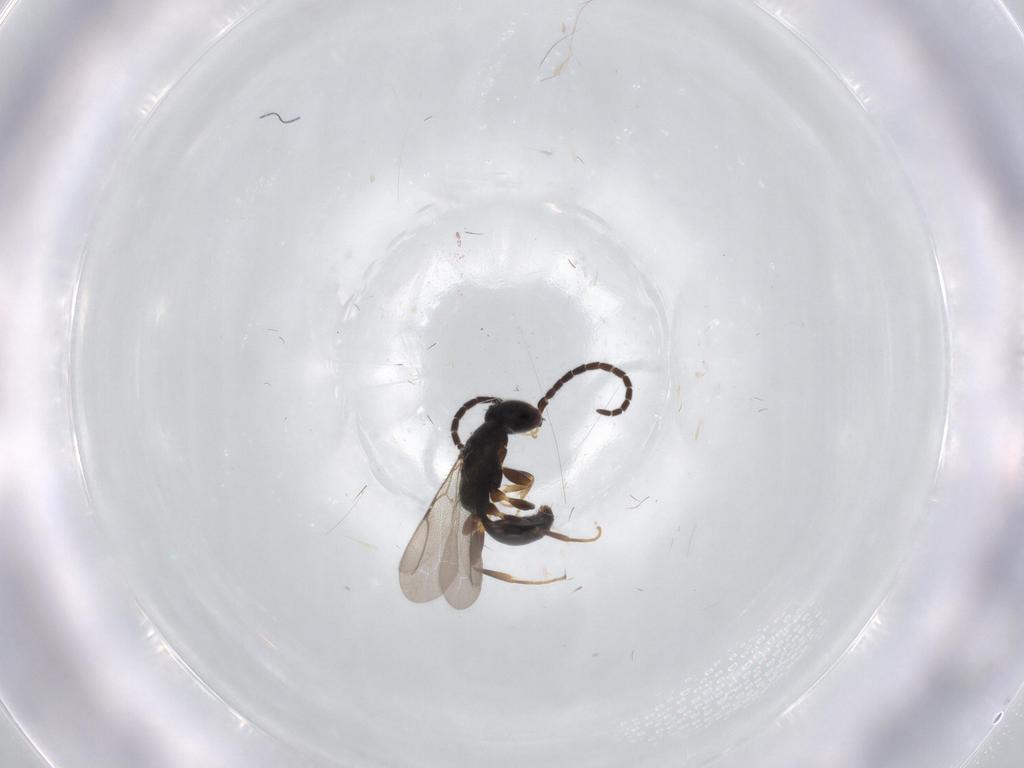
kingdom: Animalia
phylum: Arthropoda
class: Insecta
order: Hymenoptera
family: Bethylidae
